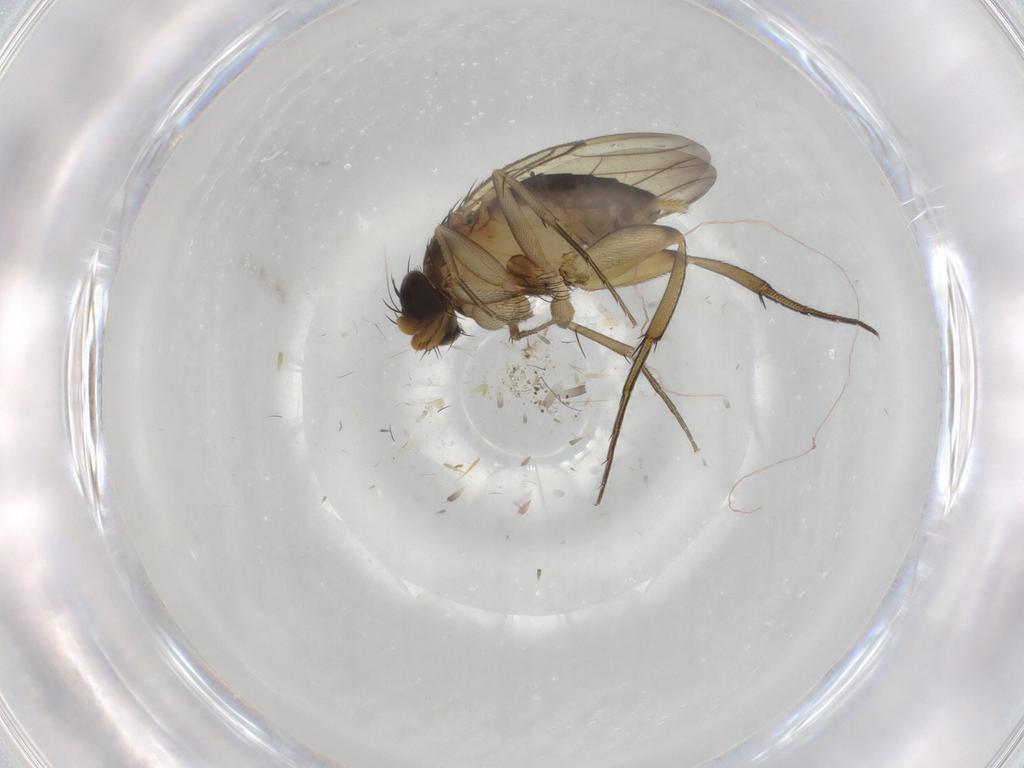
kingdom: Animalia
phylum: Arthropoda
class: Insecta
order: Diptera
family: Phoridae
